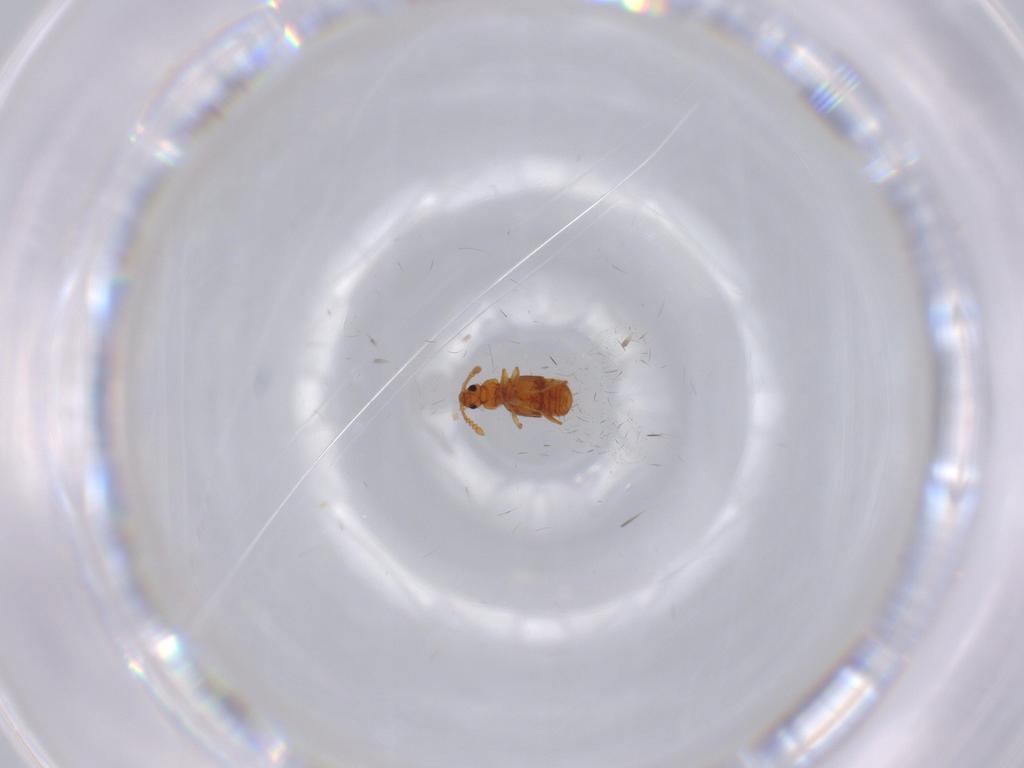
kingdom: Animalia
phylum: Arthropoda
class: Insecta
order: Coleoptera
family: Staphylinidae
